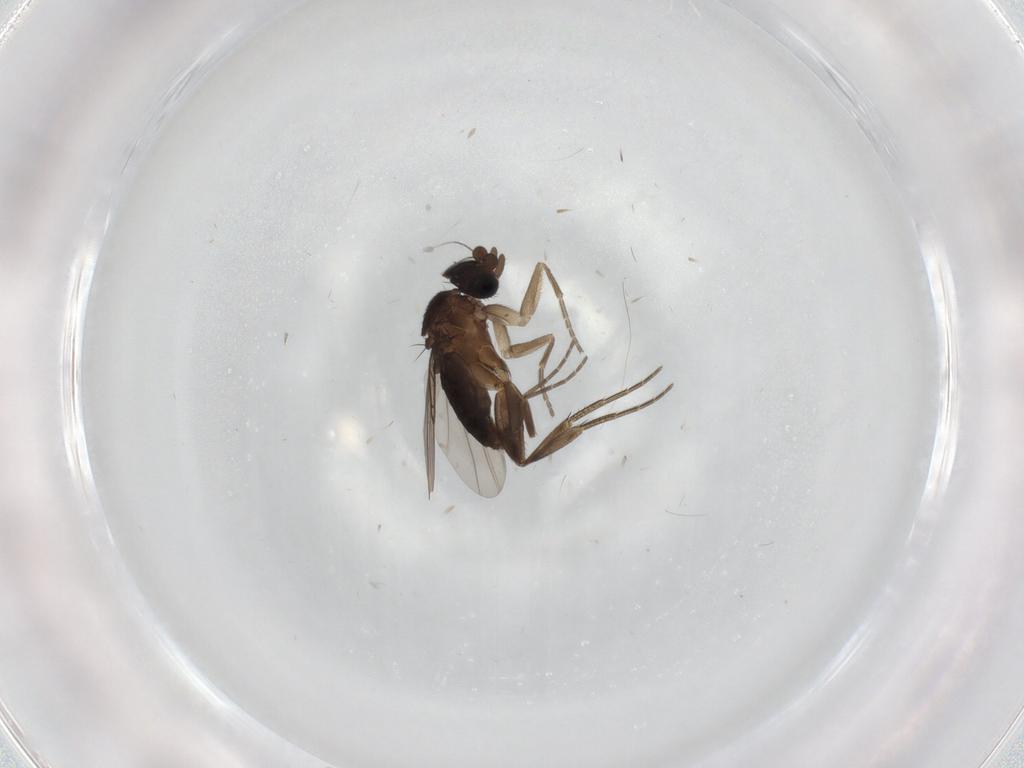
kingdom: Animalia
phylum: Arthropoda
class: Insecta
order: Diptera
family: Phoridae
